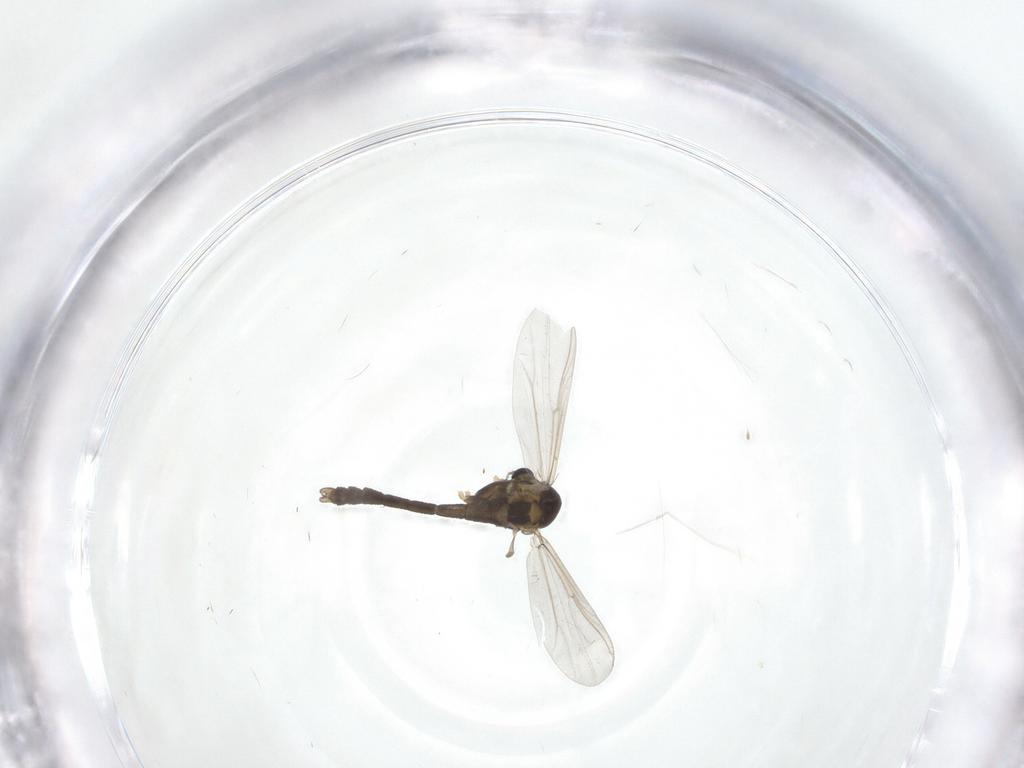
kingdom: Animalia
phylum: Arthropoda
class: Insecta
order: Diptera
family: Chironomidae
